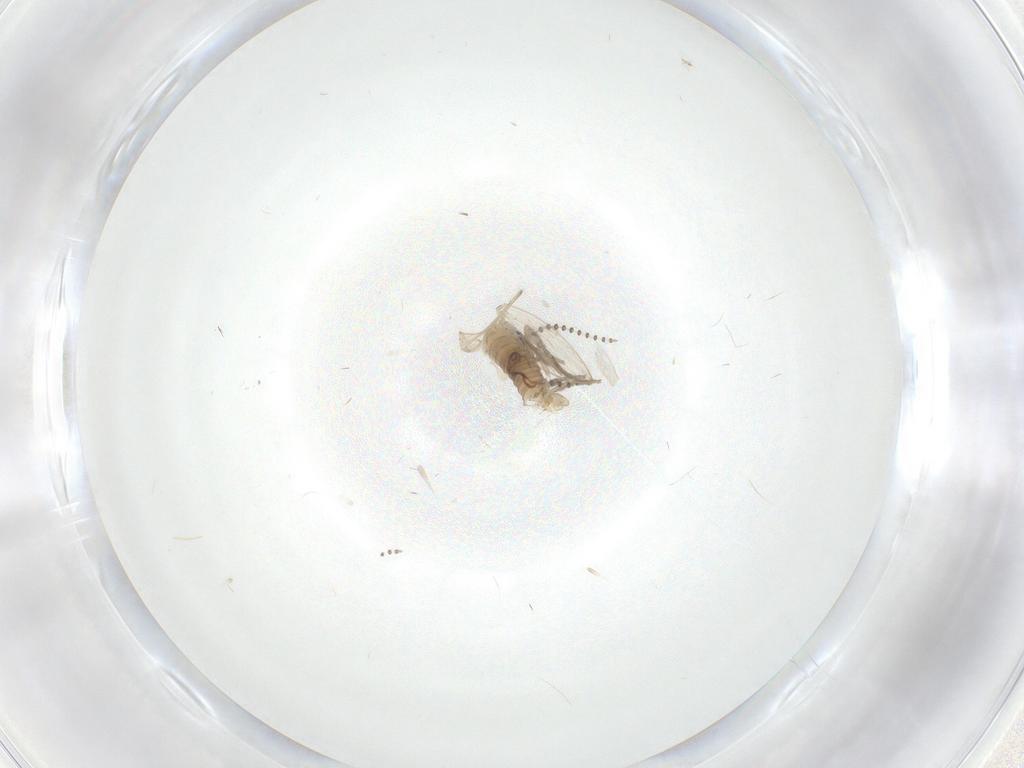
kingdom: Animalia
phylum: Arthropoda
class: Insecta
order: Diptera
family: Psychodidae
